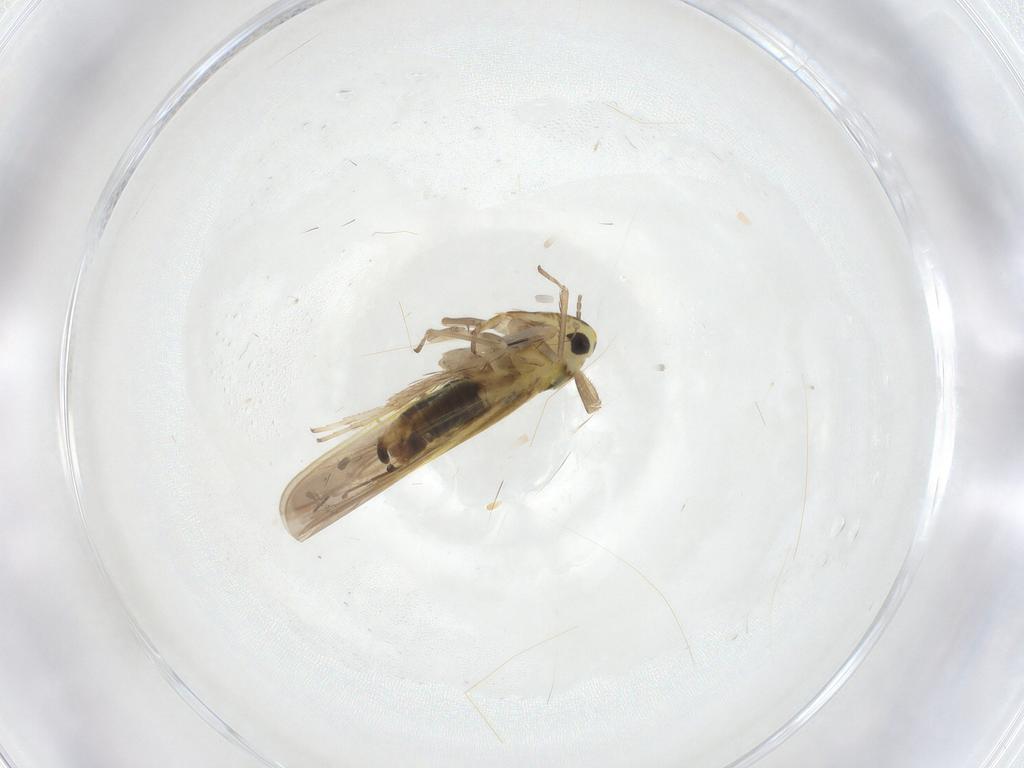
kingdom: Animalia
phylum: Arthropoda
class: Insecta
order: Hemiptera
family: Cicadellidae
